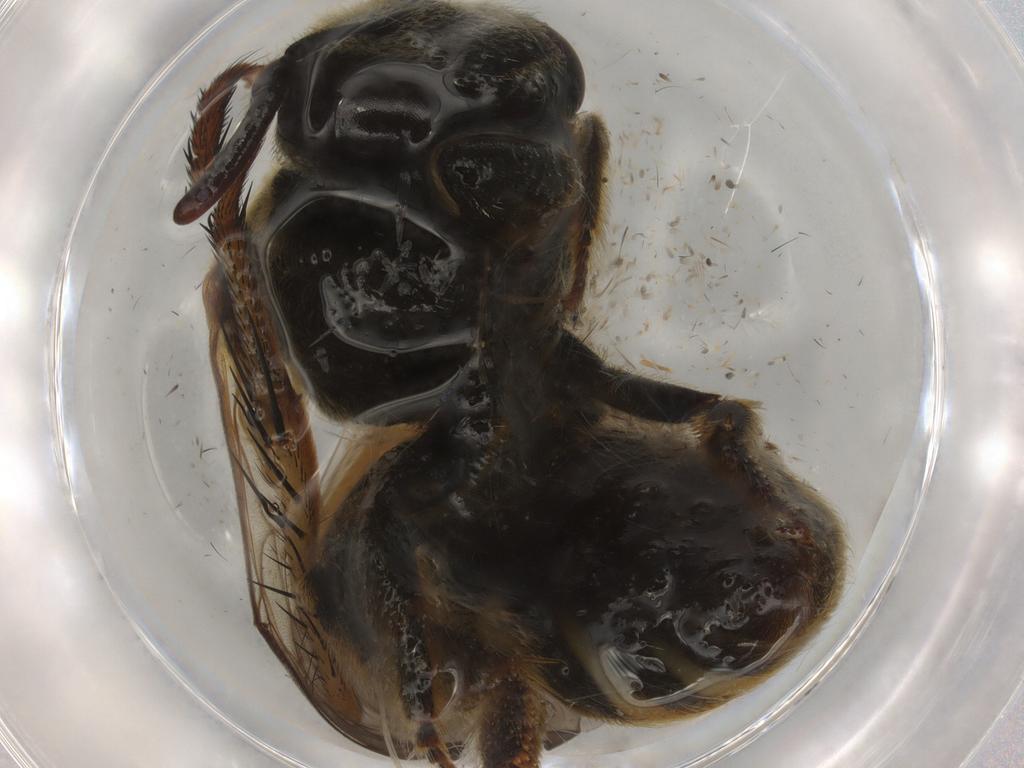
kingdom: Animalia
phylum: Arthropoda
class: Insecta
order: Hymenoptera
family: Halictidae
